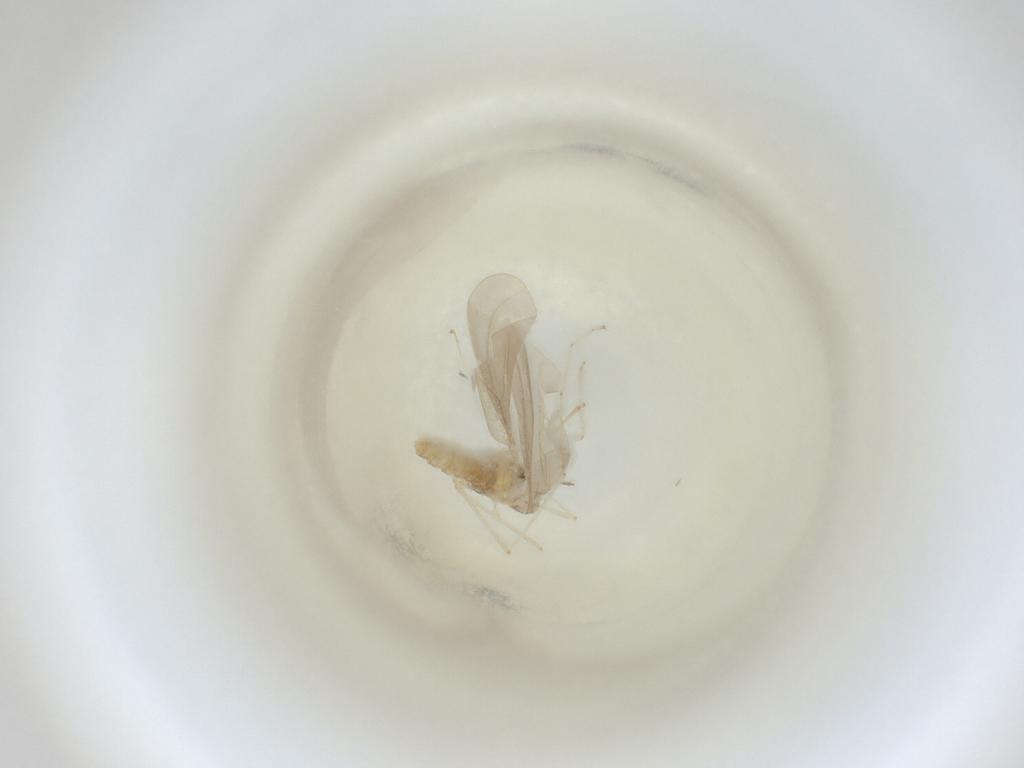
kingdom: Animalia
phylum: Arthropoda
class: Insecta
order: Diptera
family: Cecidomyiidae
